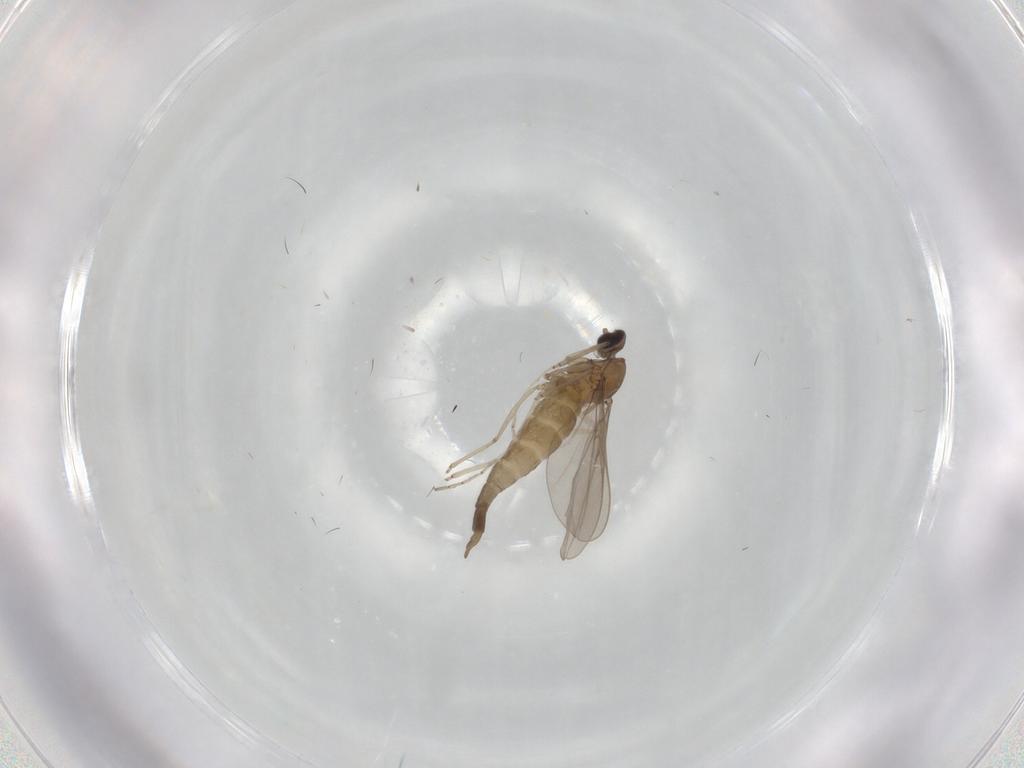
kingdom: Animalia
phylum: Arthropoda
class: Insecta
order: Diptera
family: Cecidomyiidae
